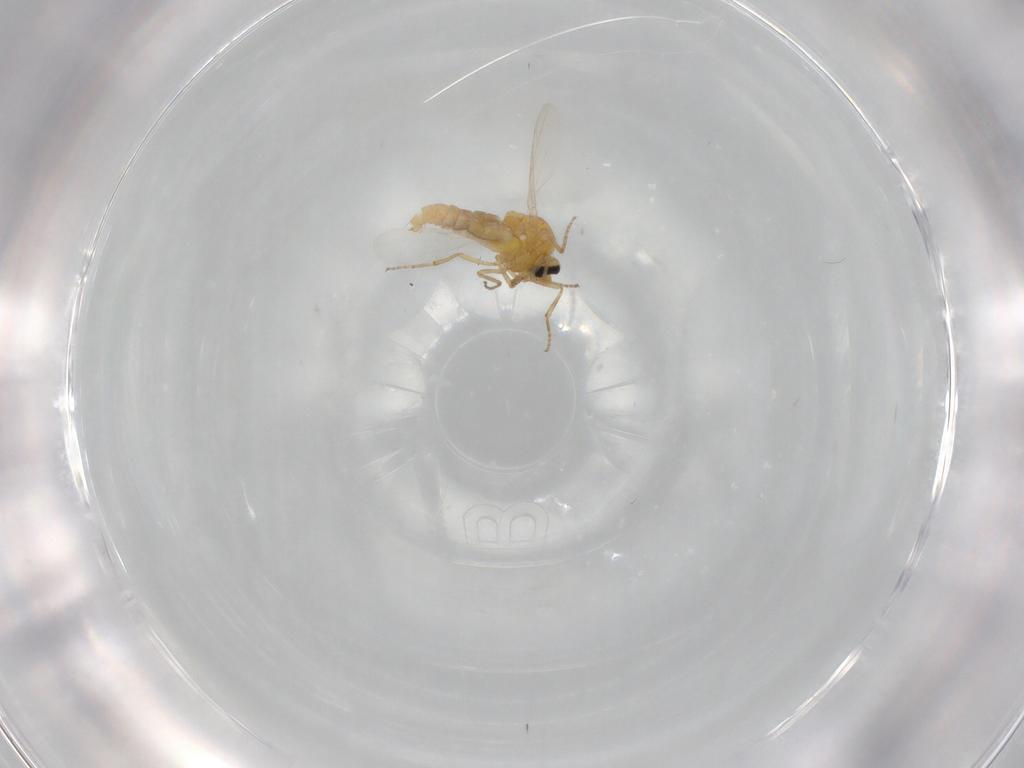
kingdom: Animalia
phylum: Arthropoda
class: Insecta
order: Diptera
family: Ceratopogonidae
